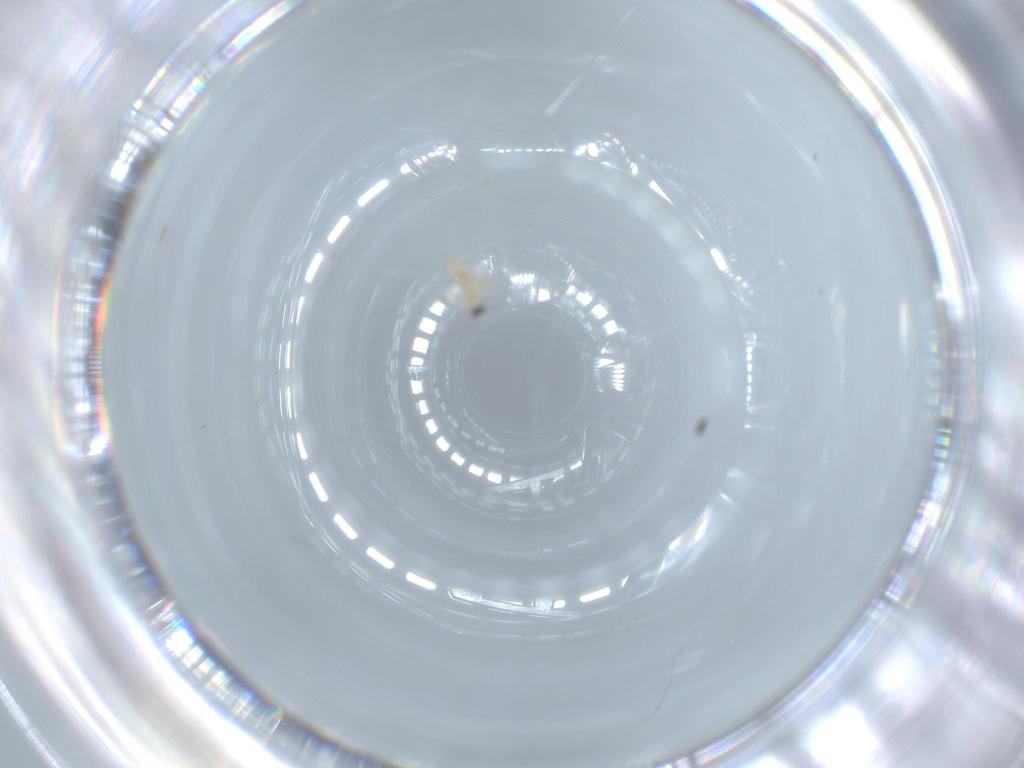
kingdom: Animalia
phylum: Arthropoda
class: Insecta
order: Diptera
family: Cecidomyiidae
